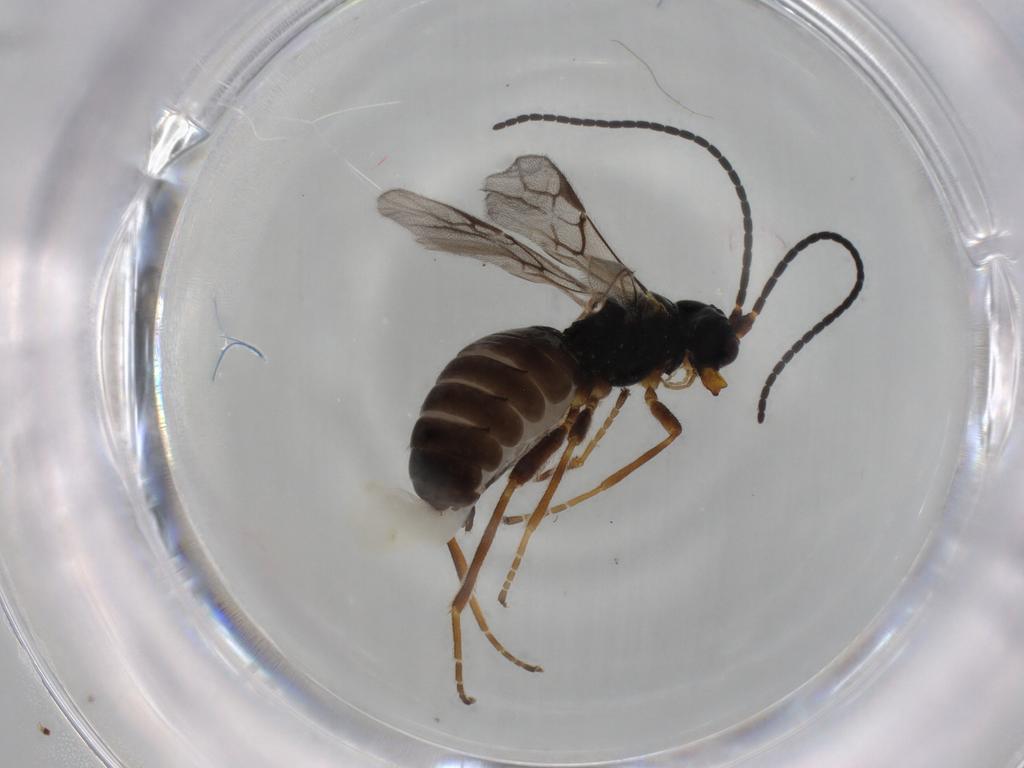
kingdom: Animalia
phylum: Arthropoda
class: Insecta
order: Hymenoptera
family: Braconidae
